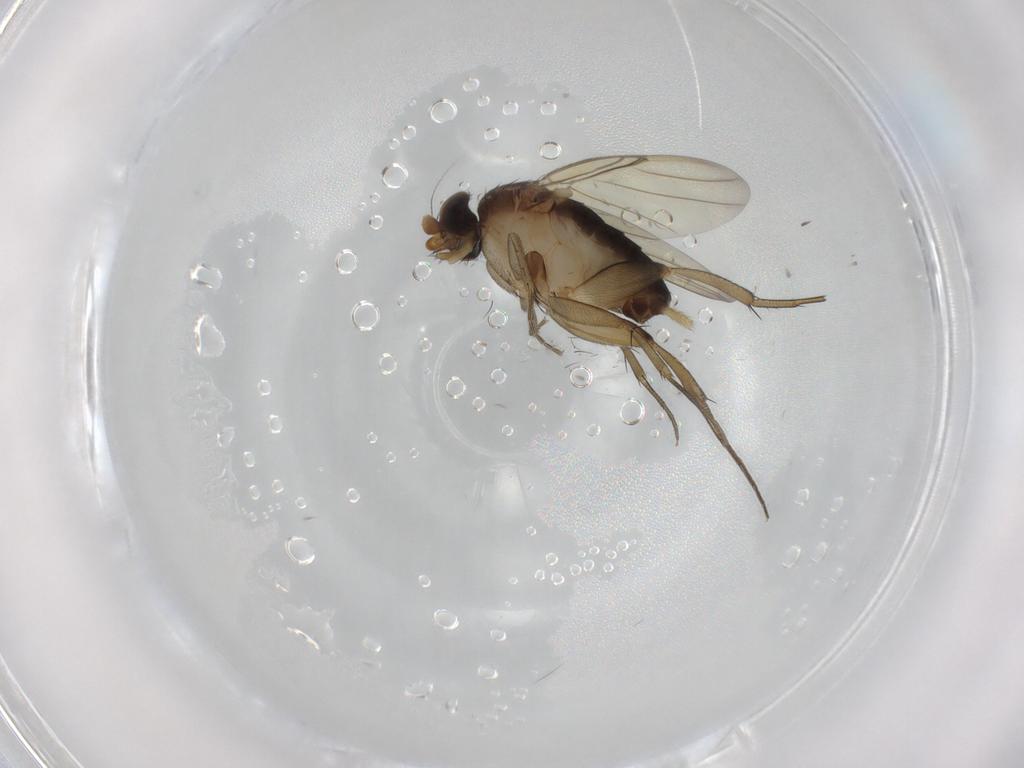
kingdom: Animalia
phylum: Arthropoda
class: Insecta
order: Diptera
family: Phoridae
